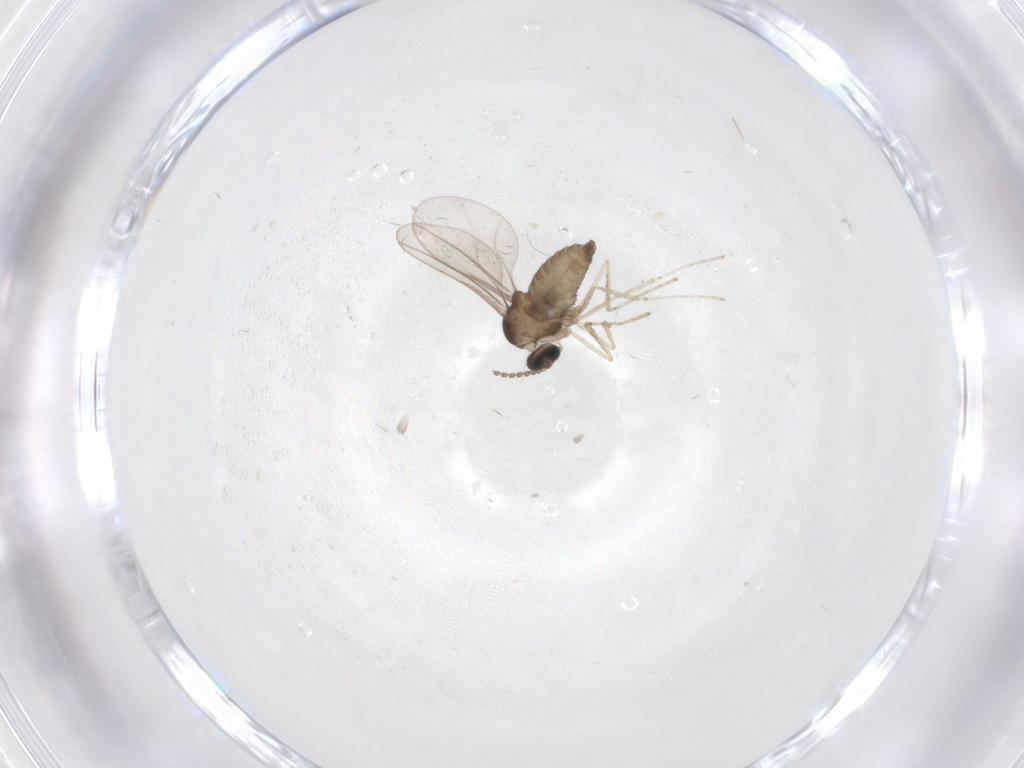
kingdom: Animalia
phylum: Arthropoda
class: Insecta
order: Diptera
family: Cecidomyiidae
